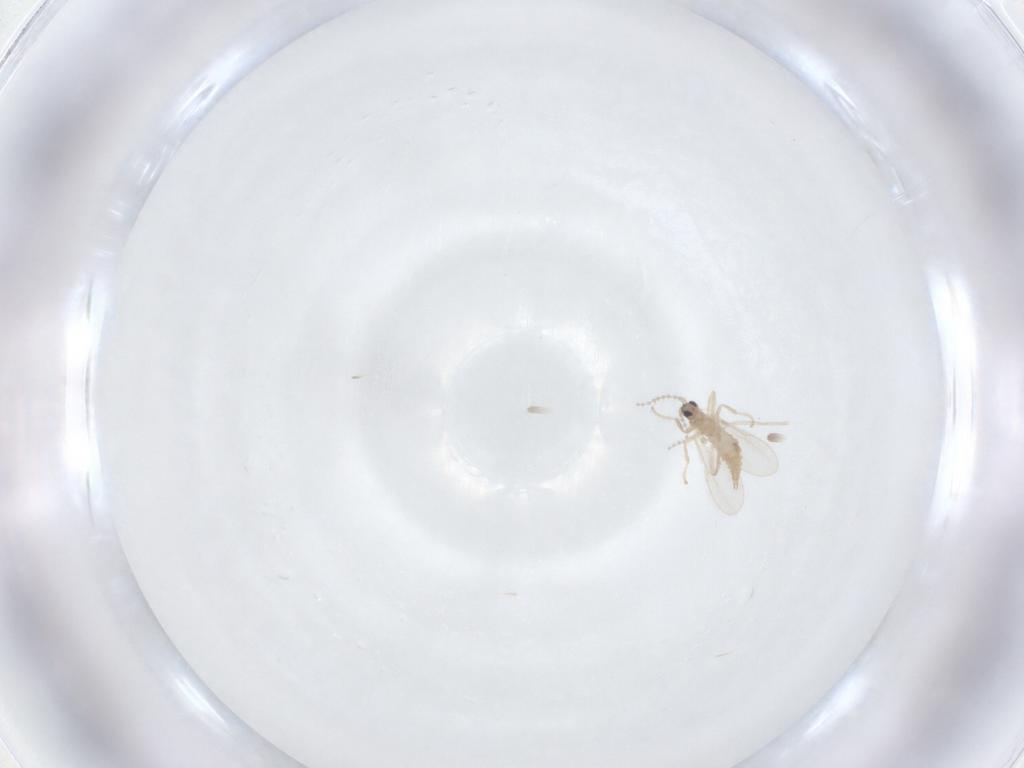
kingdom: Animalia
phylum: Arthropoda
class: Insecta
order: Diptera
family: Cecidomyiidae
